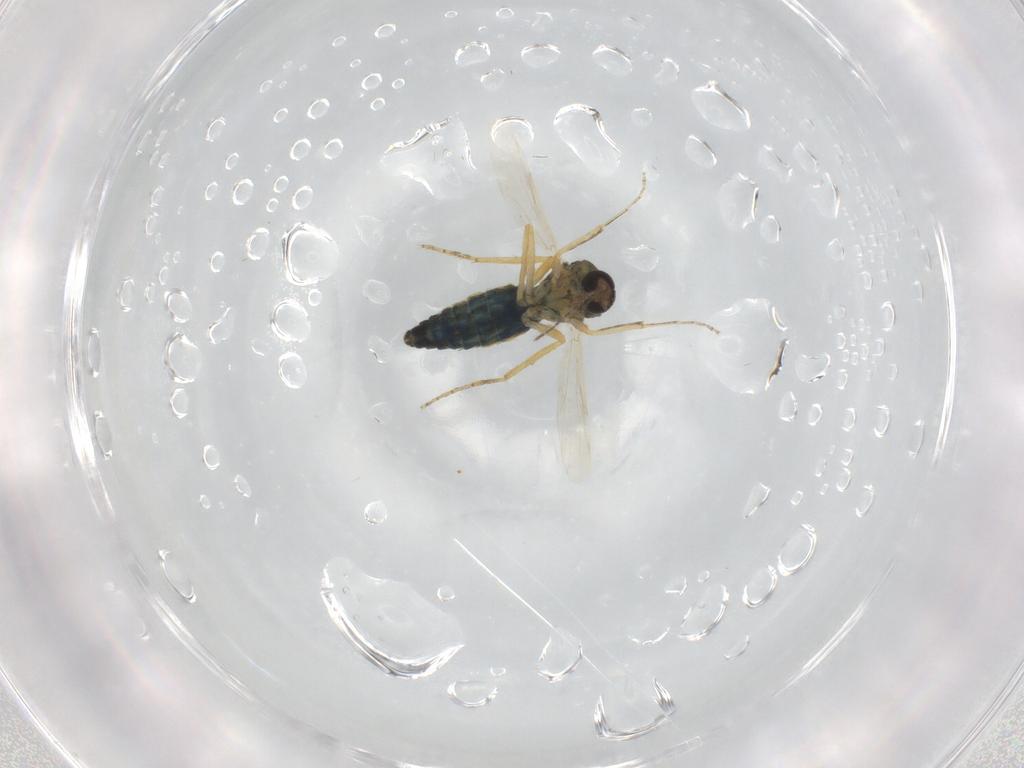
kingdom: Animalia
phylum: Arthropoda
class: Insecta
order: Diptera
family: Ceratopogonidae
